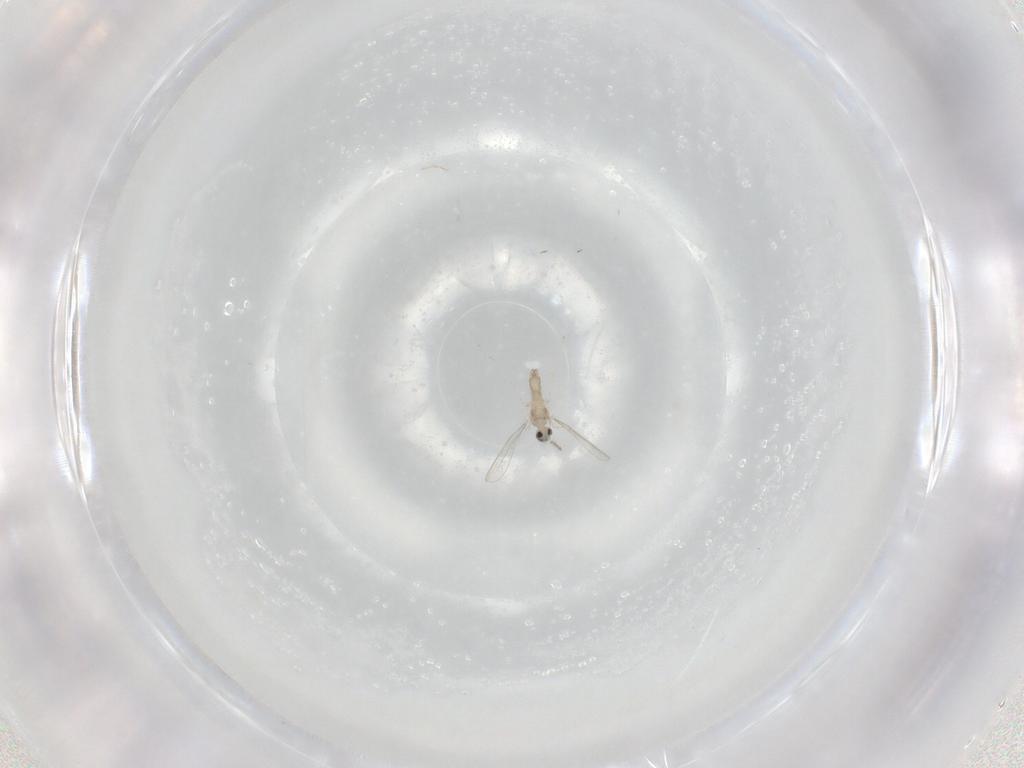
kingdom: Animalia
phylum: Arthropoda
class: Insecta
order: Diptera
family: Cecidomyiidae
